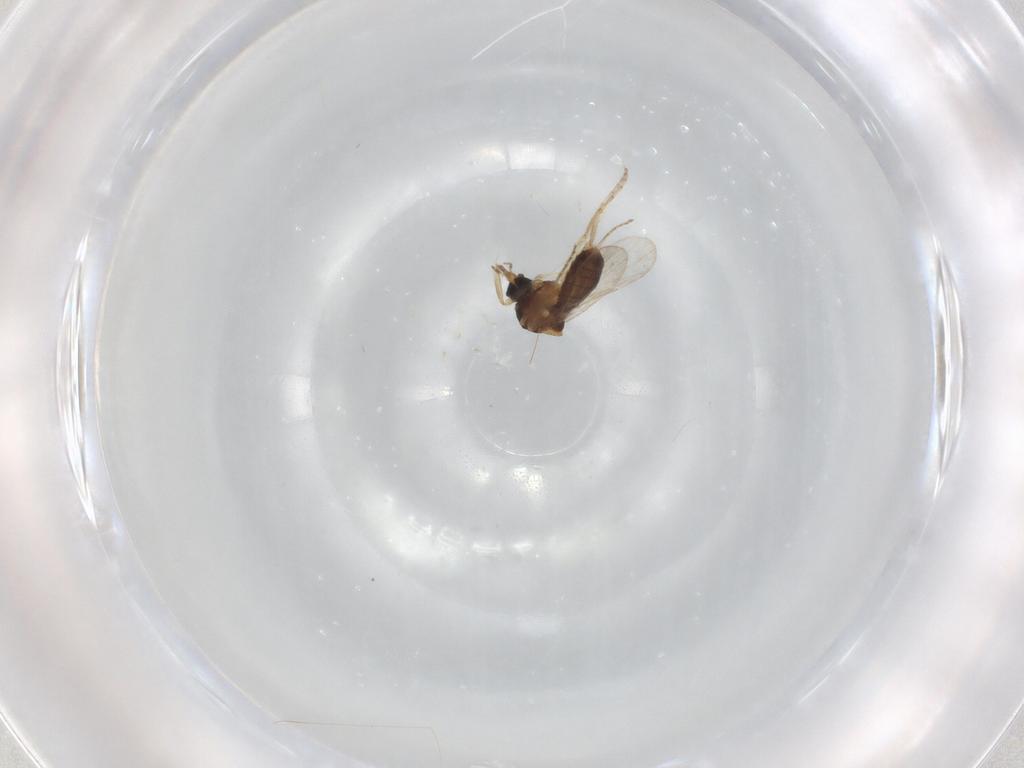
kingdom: Animalia
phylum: Arthropoda
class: Insecta
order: Diptera
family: Ceratopogonidae
